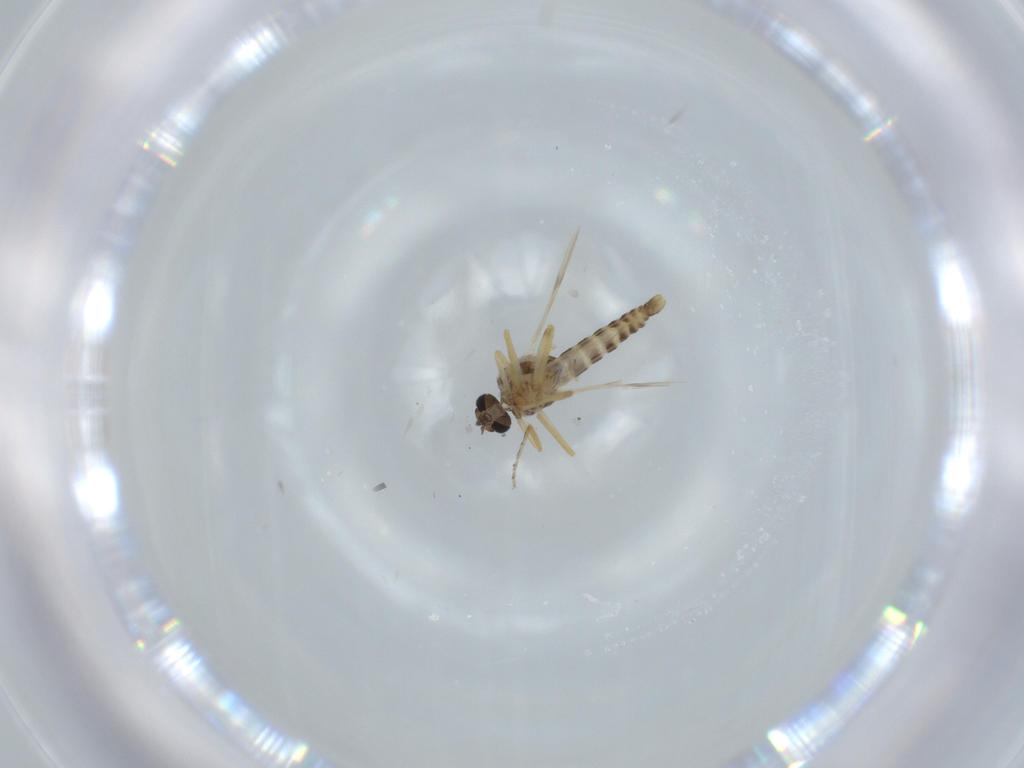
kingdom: Animalia
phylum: Arthropoda
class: Insecta
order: Diptera
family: Ceratopogonidae
